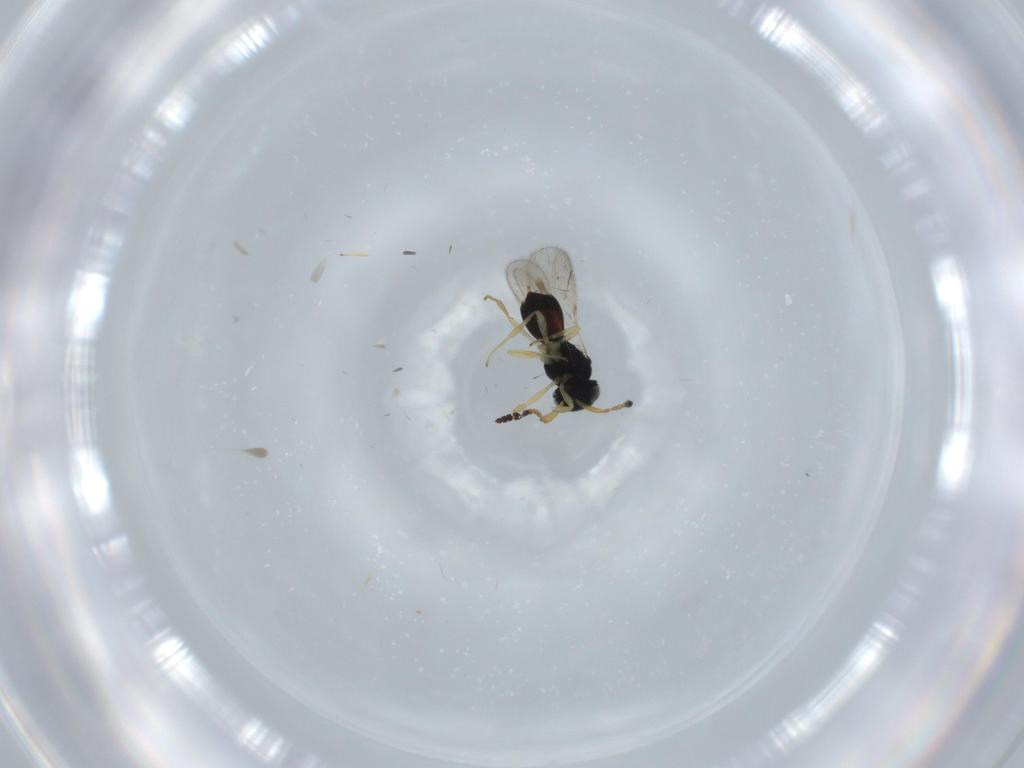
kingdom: Animalia
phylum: Arthropoda
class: Insecta
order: Hymenoptera
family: Scelionidae
